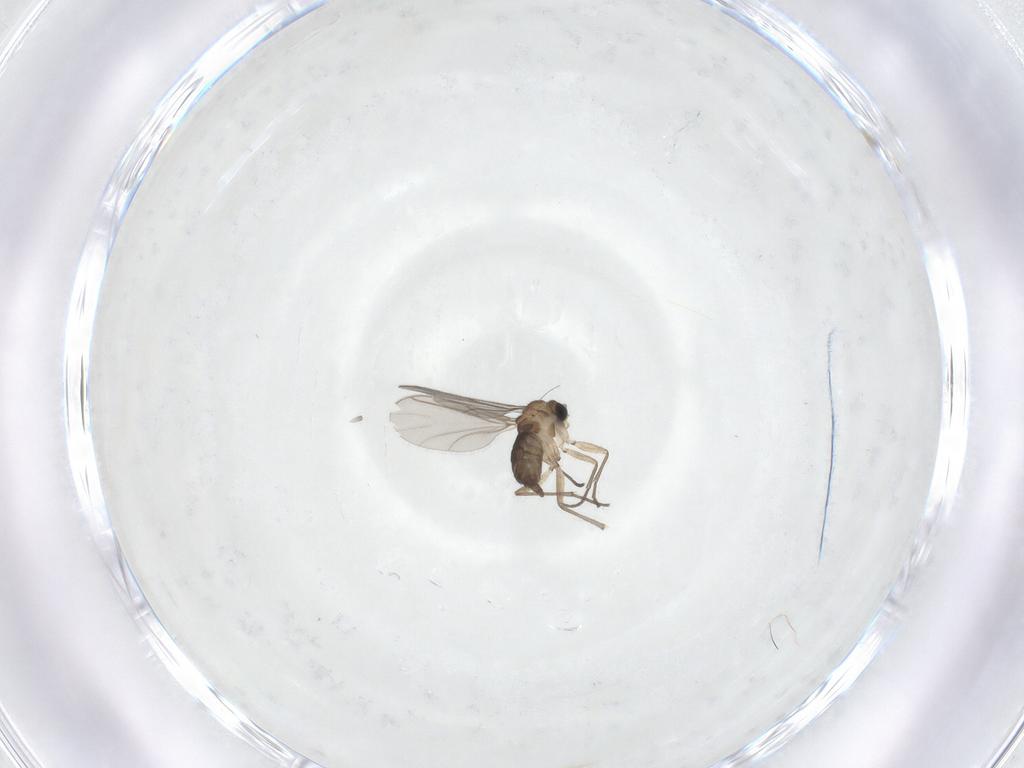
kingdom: Animalia
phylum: Arthropoda
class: Insecta
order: Diptera
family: Sciaridae
